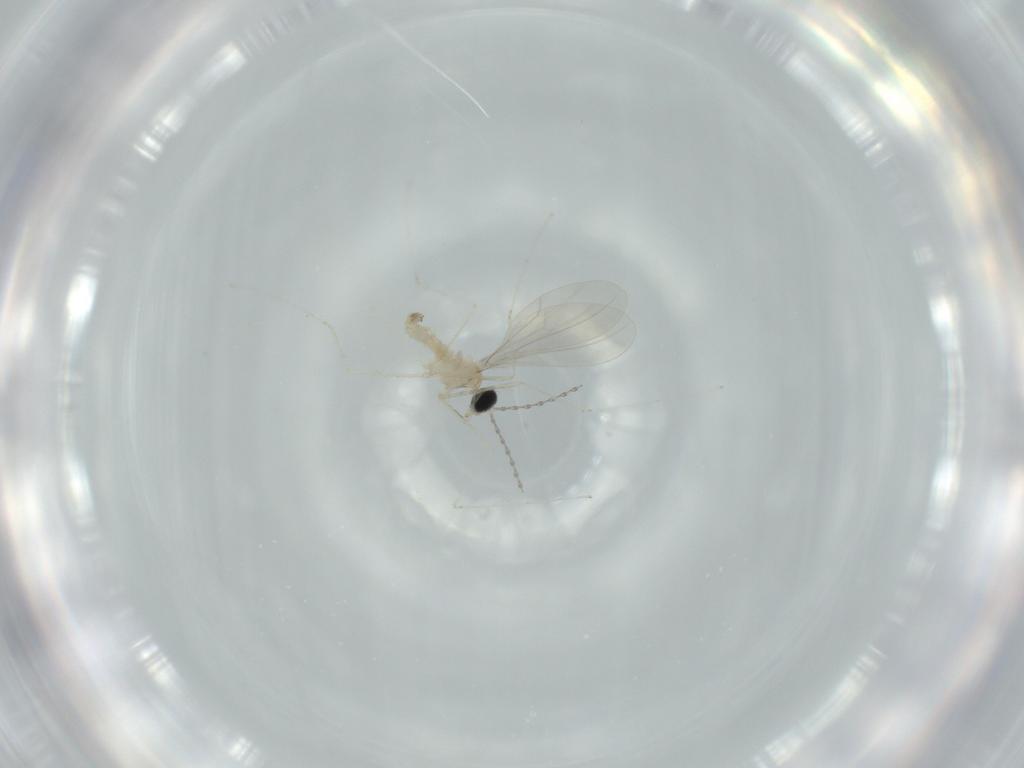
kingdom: Animalia
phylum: Arthropoda
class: Insecta
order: Diptera
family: Cecidomyiidae
